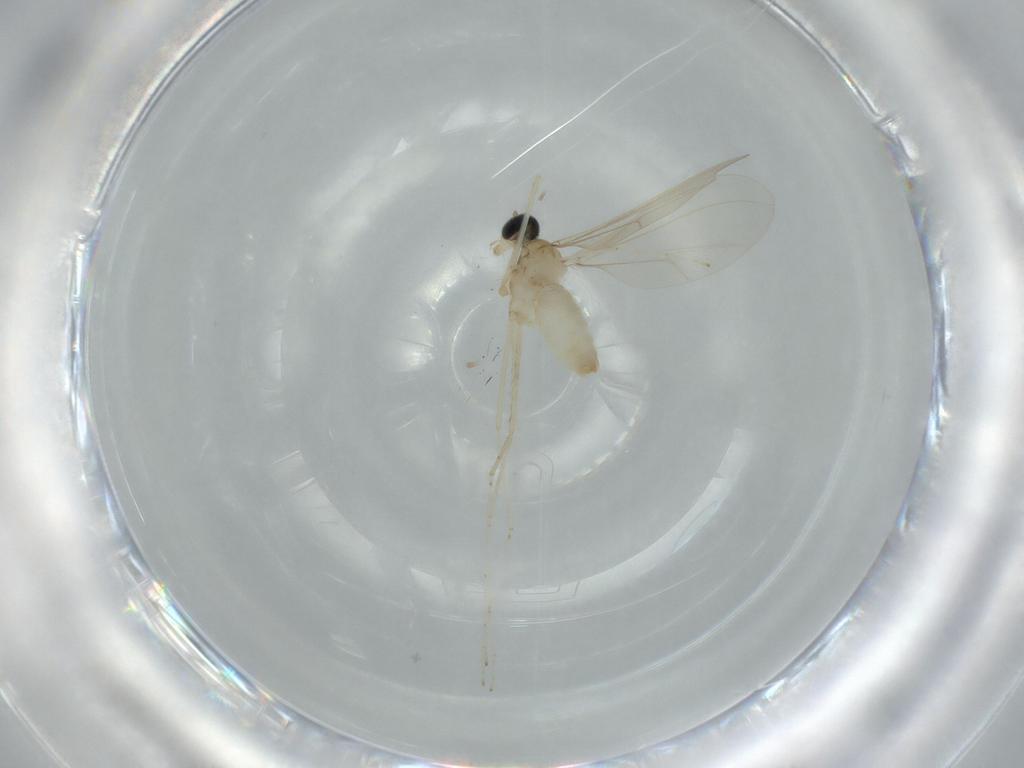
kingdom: Animalia
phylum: Arthropoda
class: Insecta
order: Diptera
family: Cecidomyiidae
